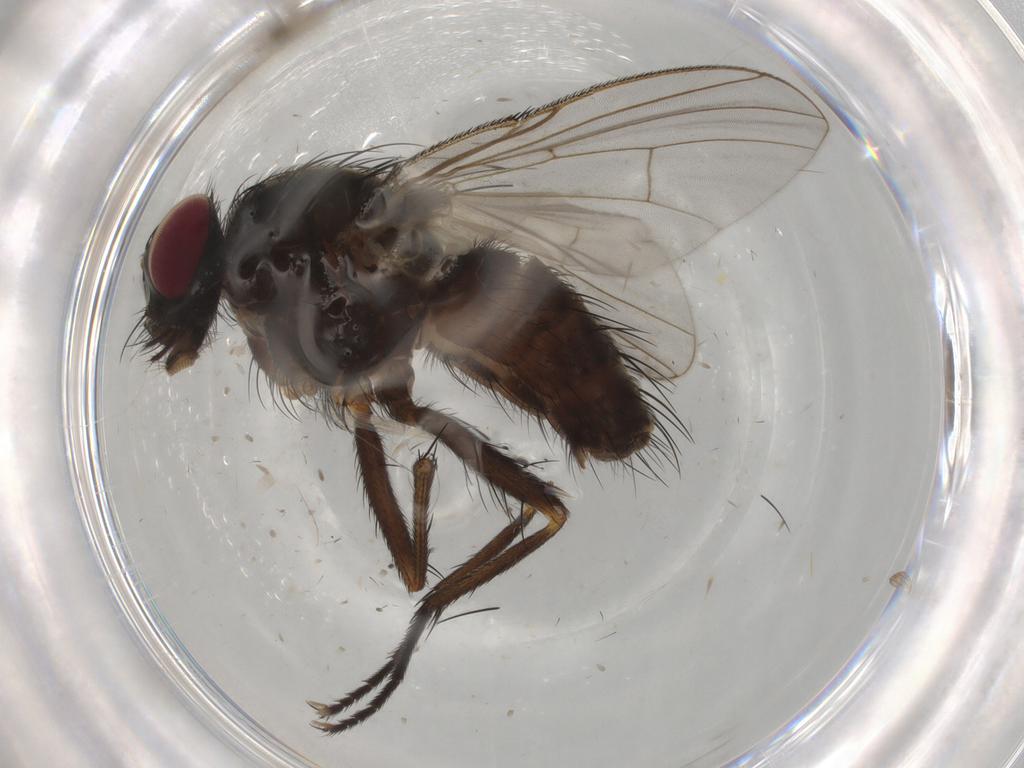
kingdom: Animalia
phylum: Arthropoda
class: Insecta
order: Diptera
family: Muscidae
